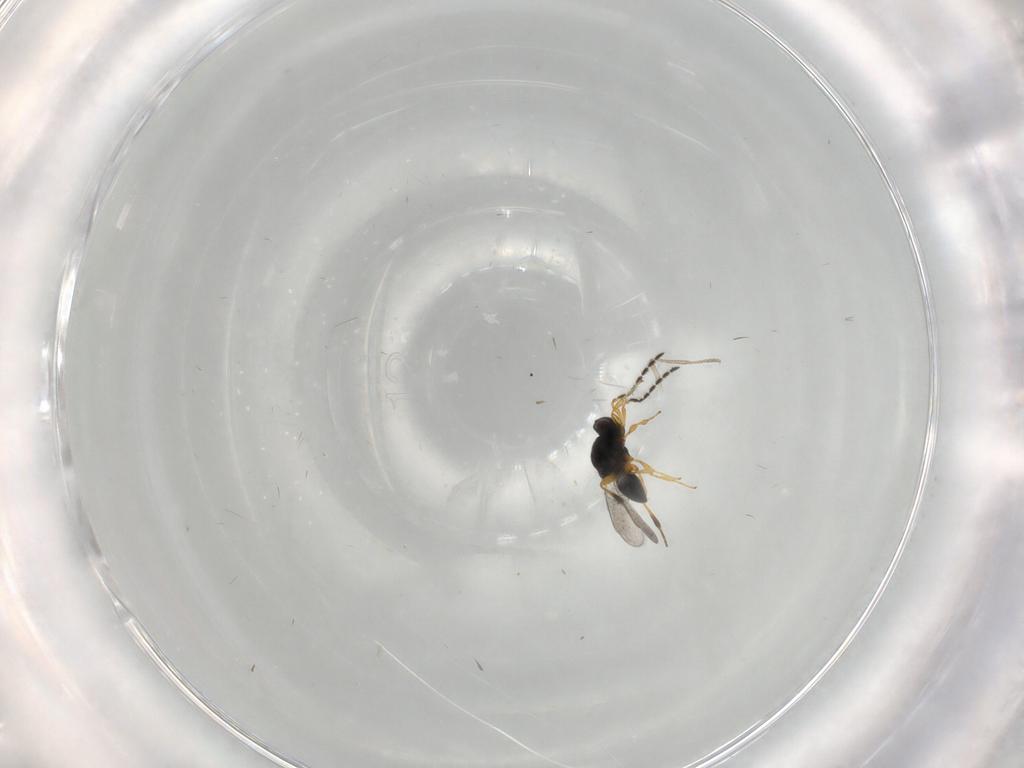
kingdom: Animalia
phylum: Arthropoda
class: Insecta
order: Hymenoptera
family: Platygastridae
